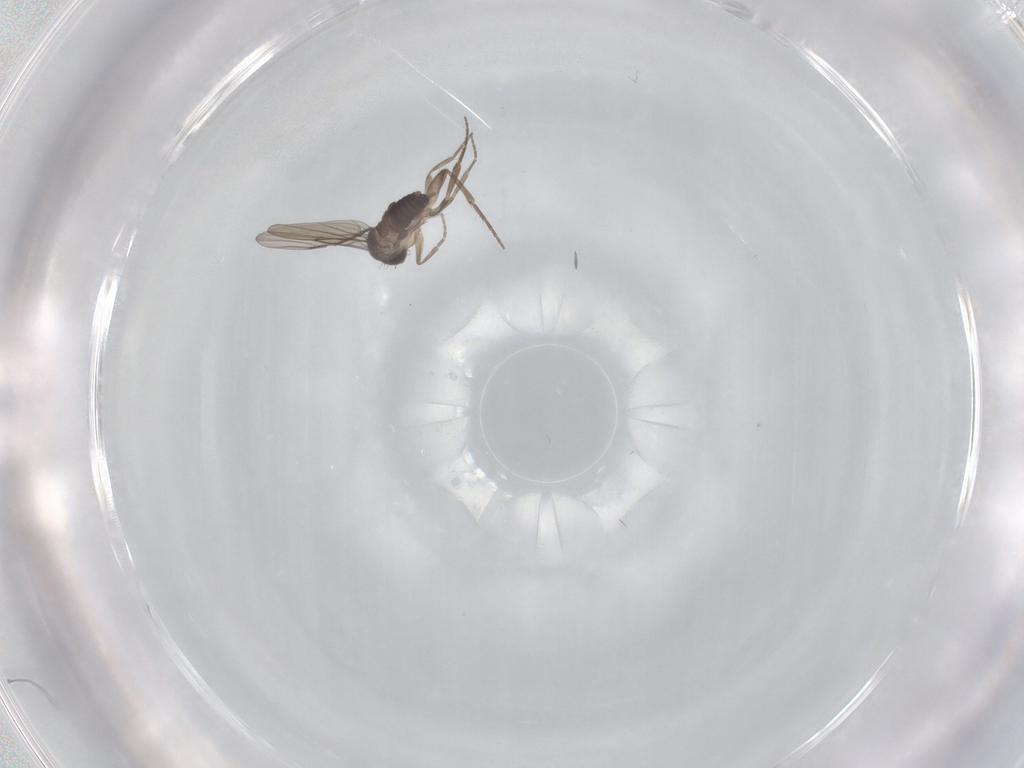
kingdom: Animalia
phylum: Arthropoda
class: Insecta
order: Diptera
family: Phoridae
